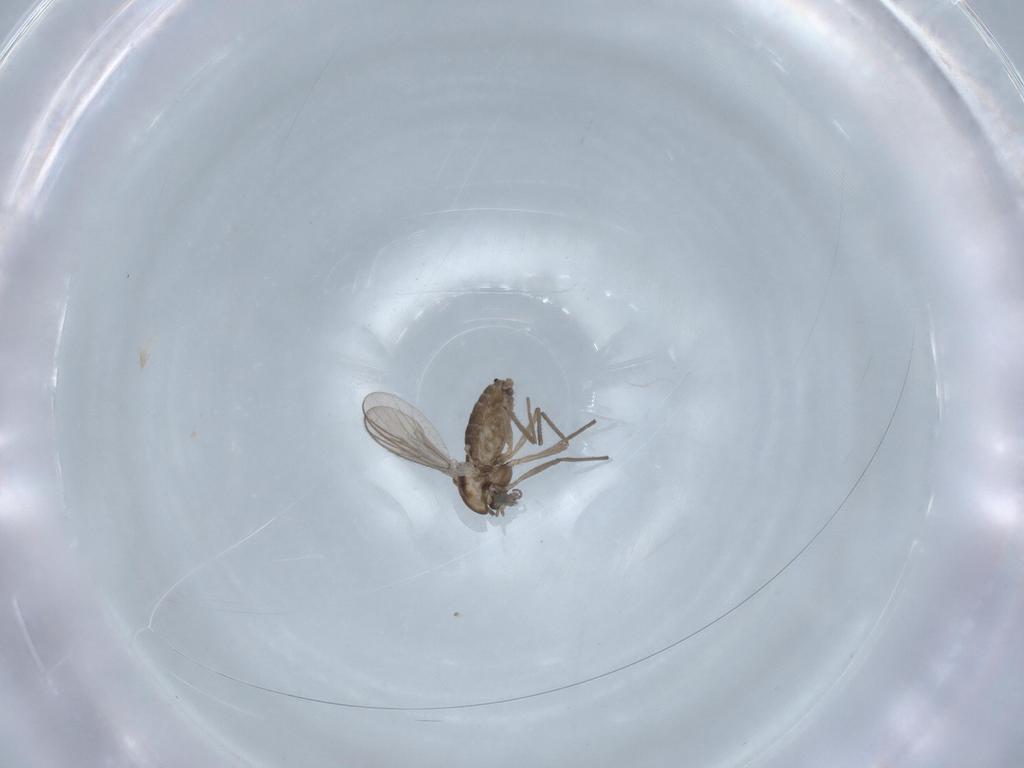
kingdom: Animalia
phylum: Arthropoda
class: Insecta
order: Diptera
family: Chironomidae
